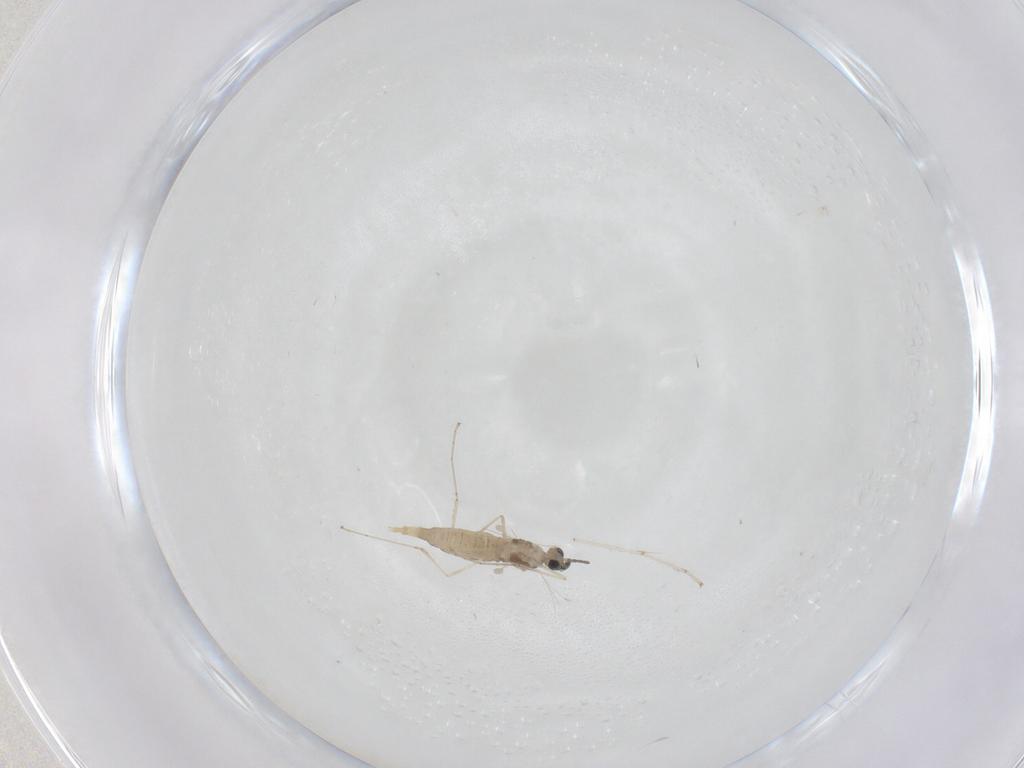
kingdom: Animalia
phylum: Arthropoda
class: Insecta
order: Diptera
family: Cecidomyiidae
